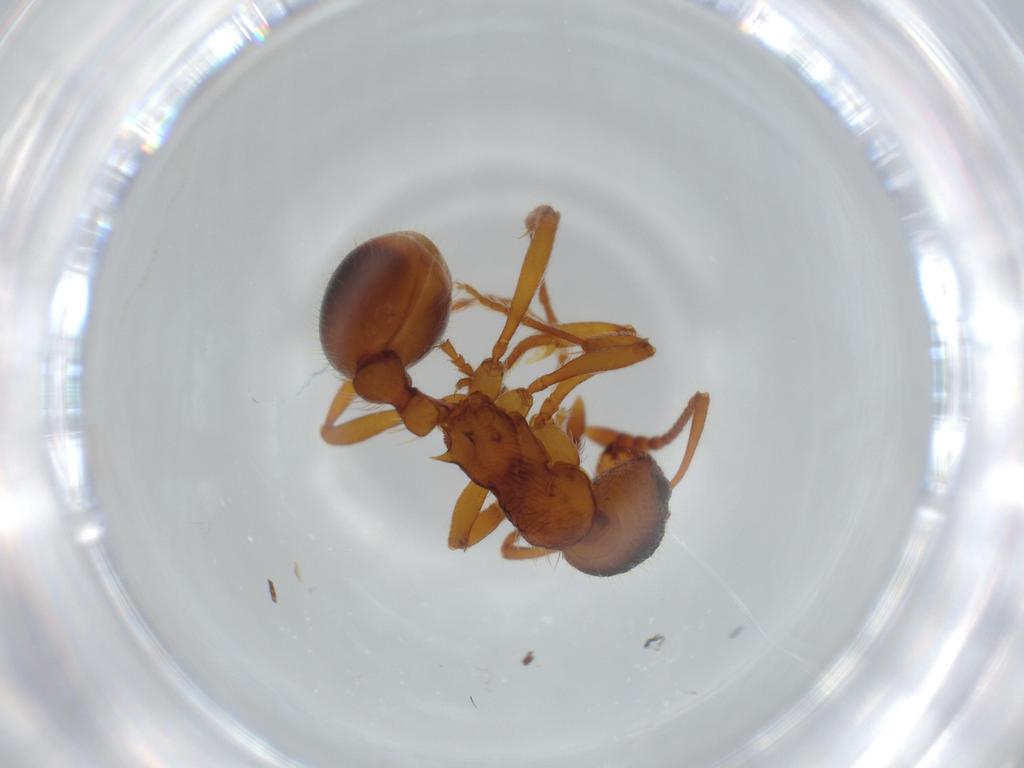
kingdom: Animalia
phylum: Arthropoda
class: Insecta
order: Hymenoptera
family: Formicidae
